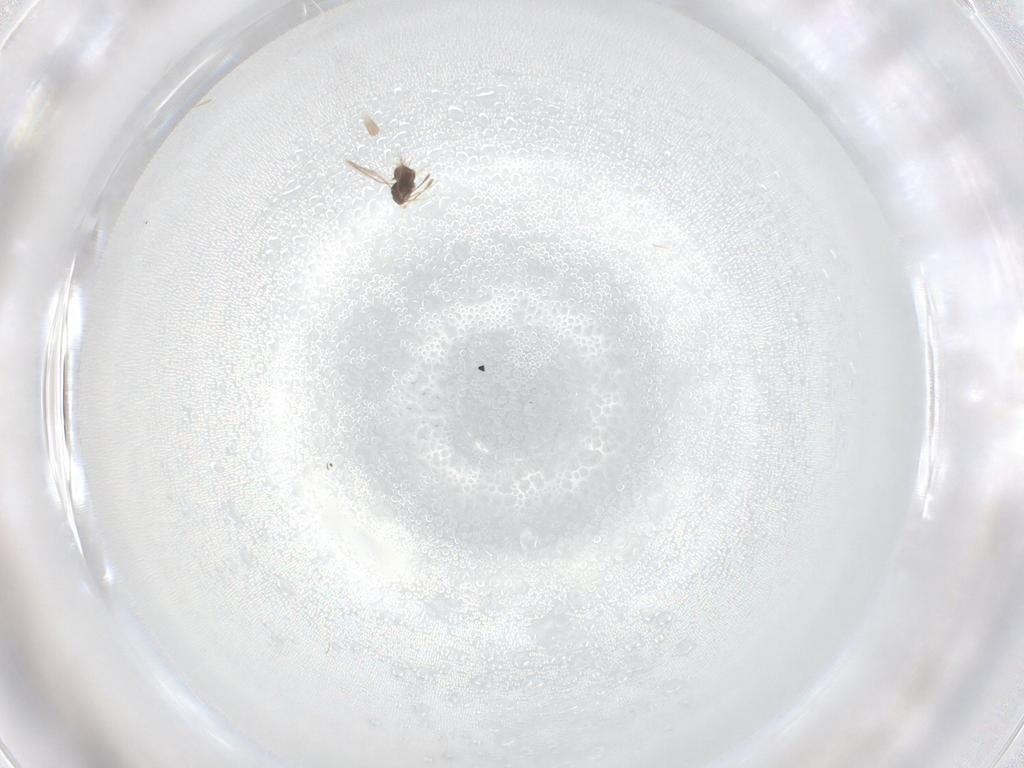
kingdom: Animalia
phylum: Arthropoda
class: Insecta
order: Hymenoptera
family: Mymaridae
